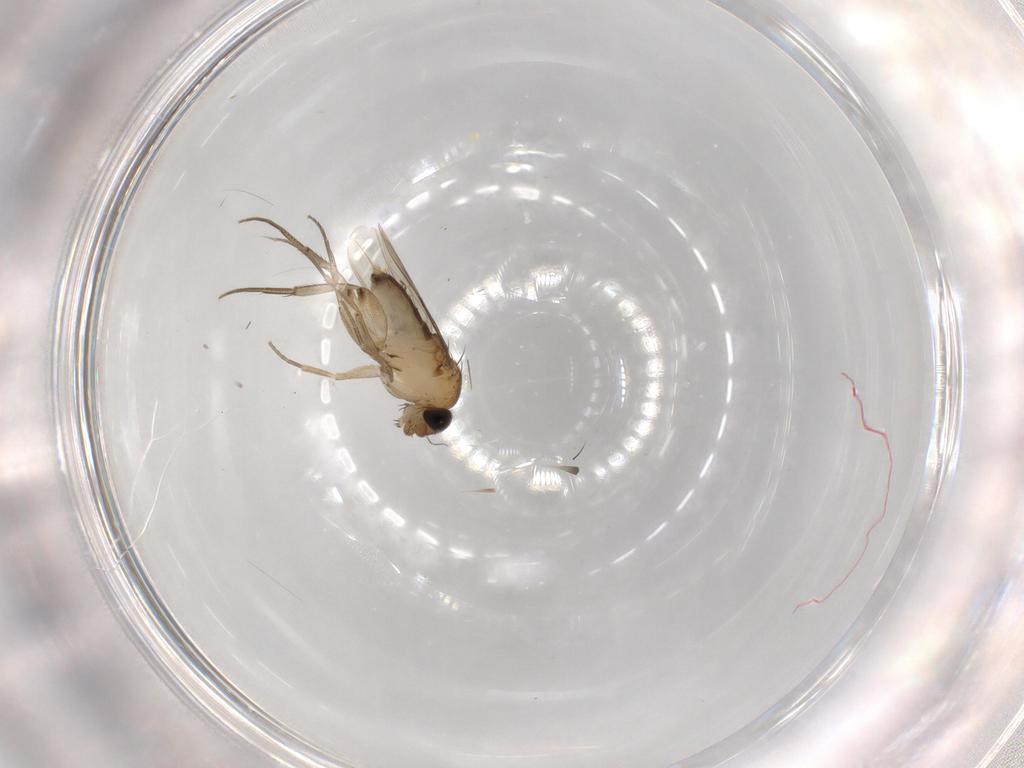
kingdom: Animalia
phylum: Arthropoda
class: Insecta
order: Diptera
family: Phoridae
